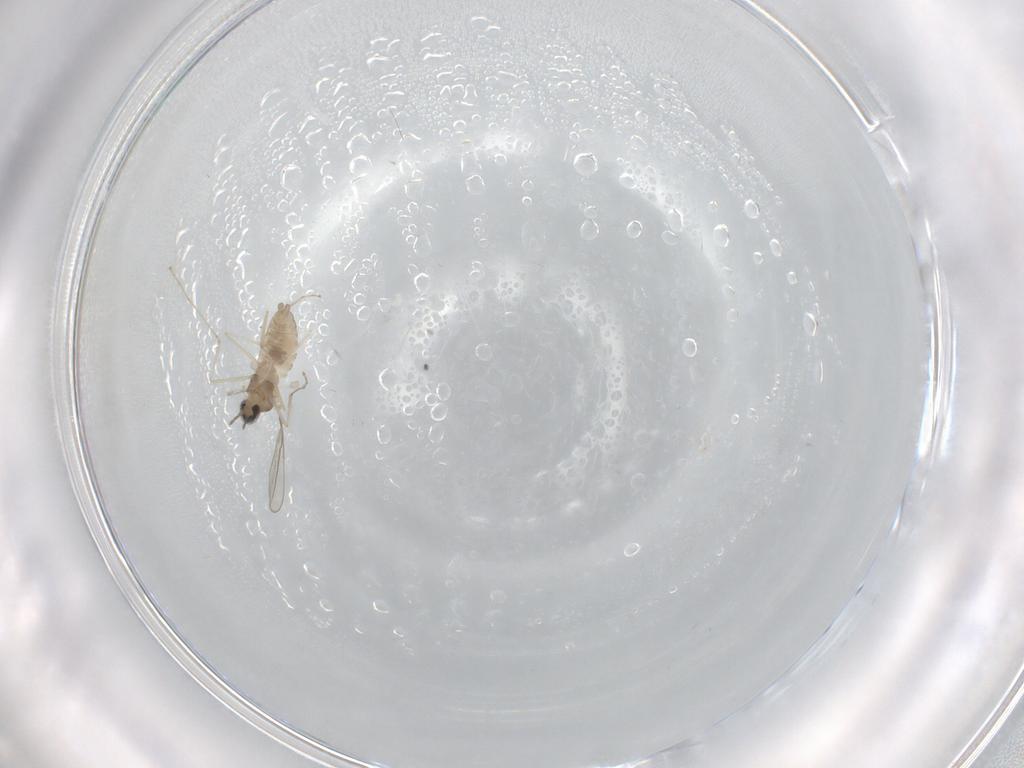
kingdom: Animalia
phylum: Arthropoda
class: Insecta
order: Diptera
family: Cecidomyiidae
